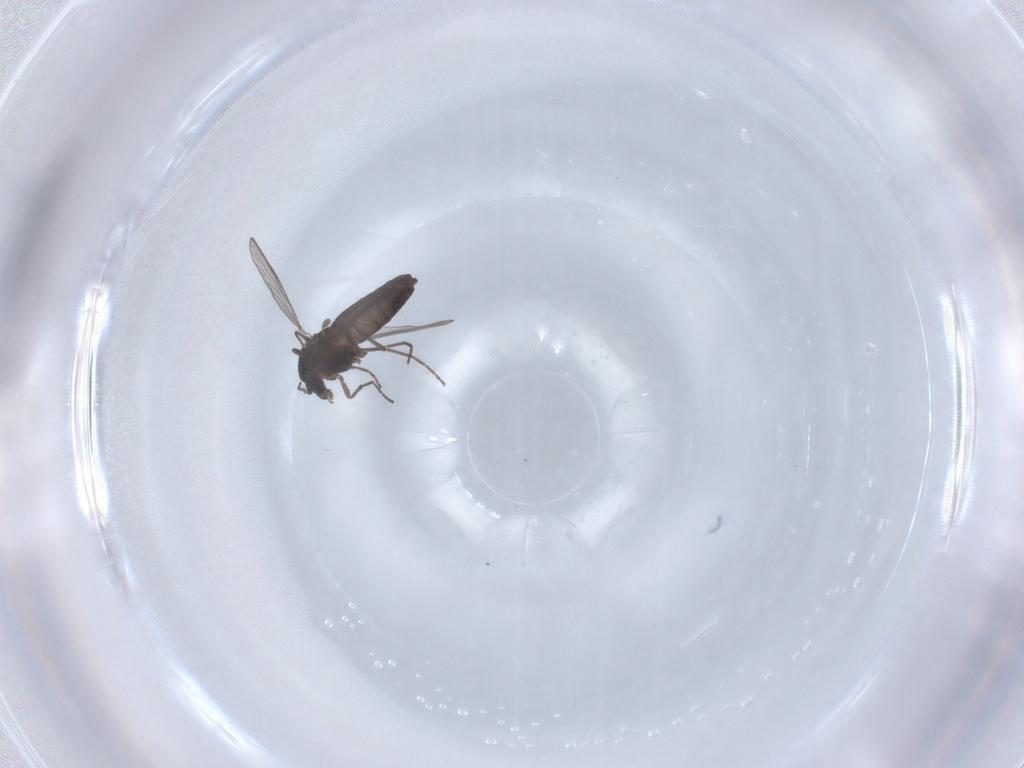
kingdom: Animalia
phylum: Arthropoda
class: Insecta
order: Diptera
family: Chironomidae
